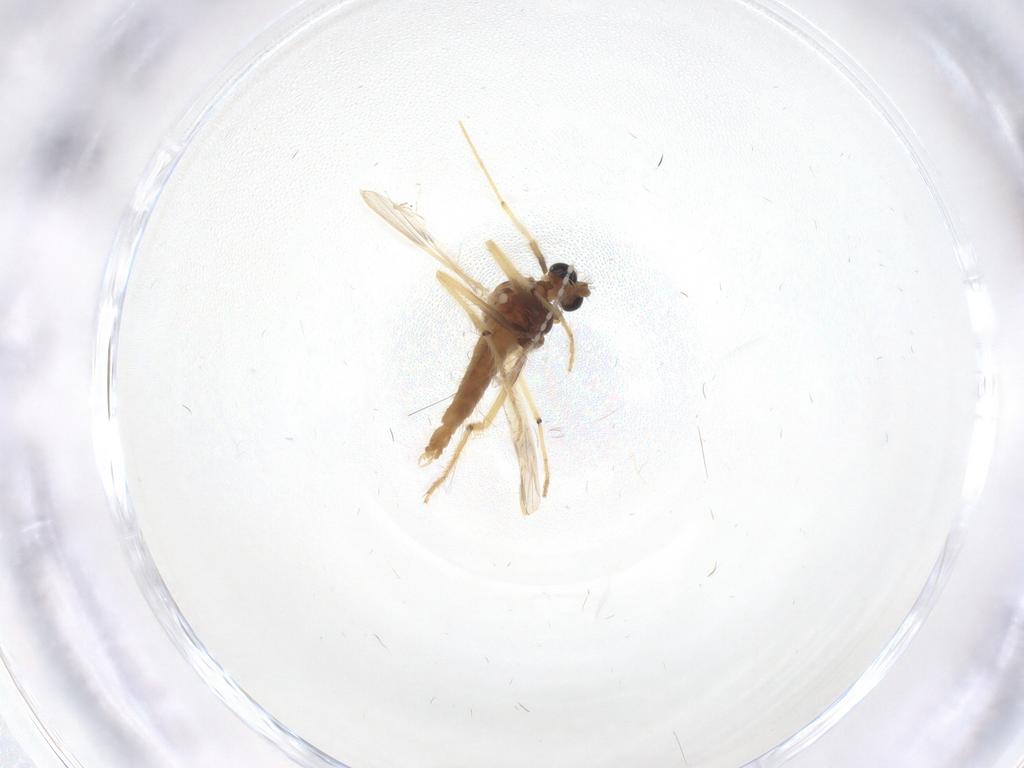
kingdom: Animalia
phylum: Arthropoda
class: Insecta
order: Diptera
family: Chironomidae
